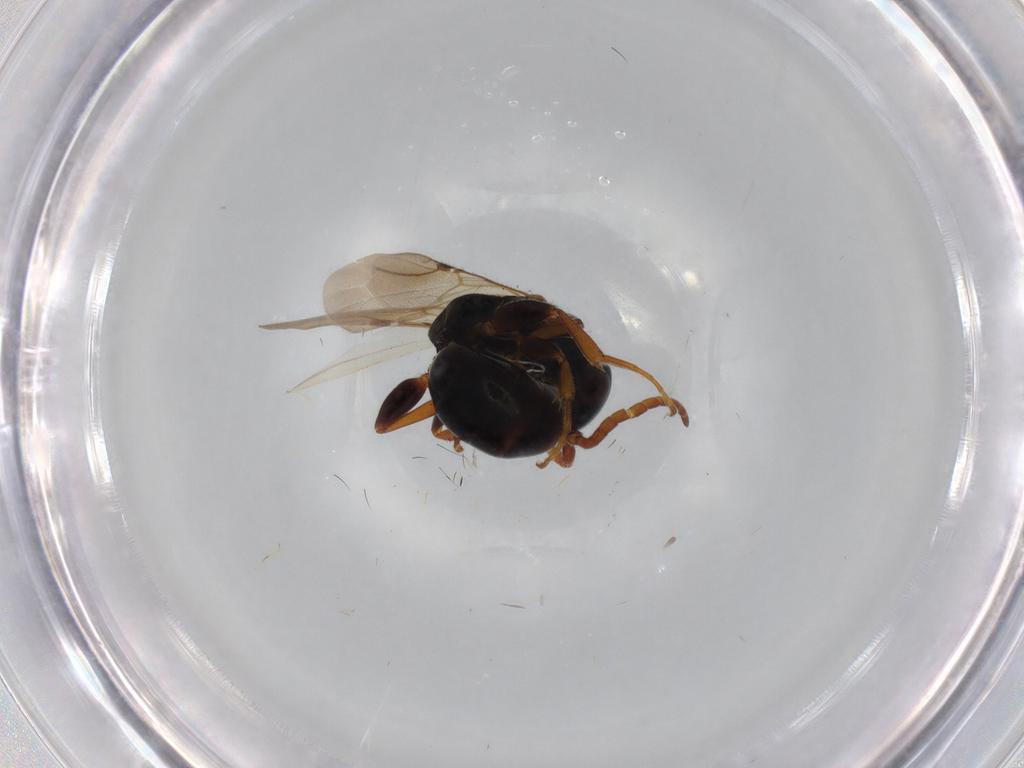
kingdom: Animalia
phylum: Arthropoda
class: Insecta
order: Hymenoptera
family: Bethylidae
